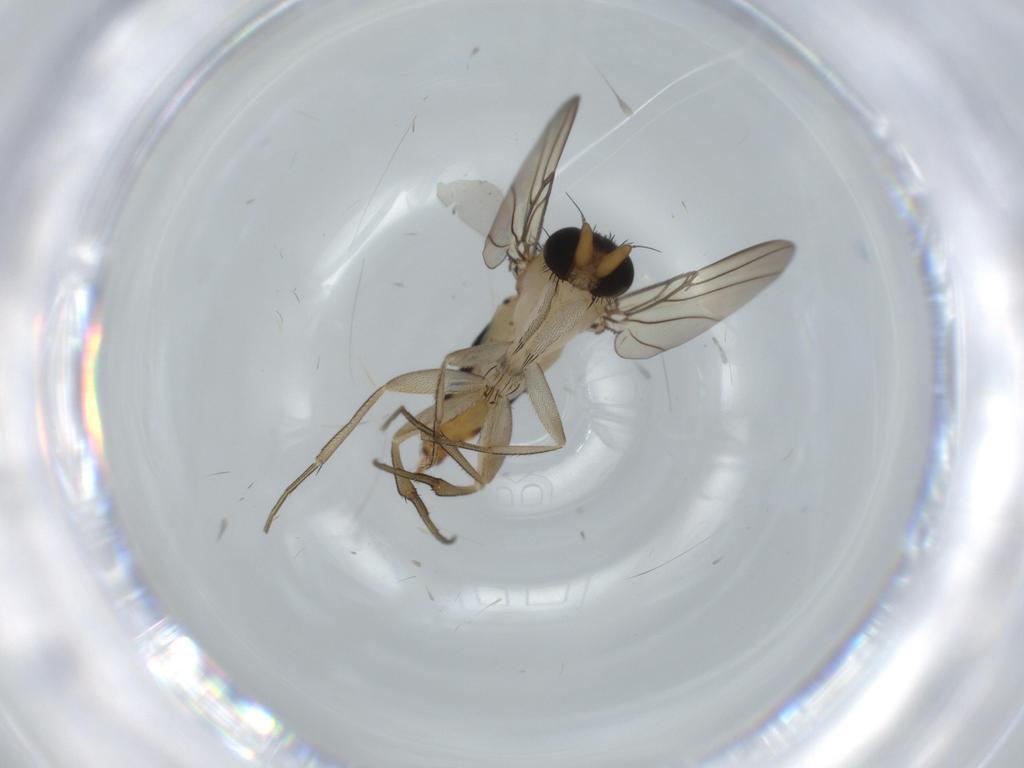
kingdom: Animalia
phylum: Arthropoda
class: Insecta
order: Diptera
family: Phoridae
